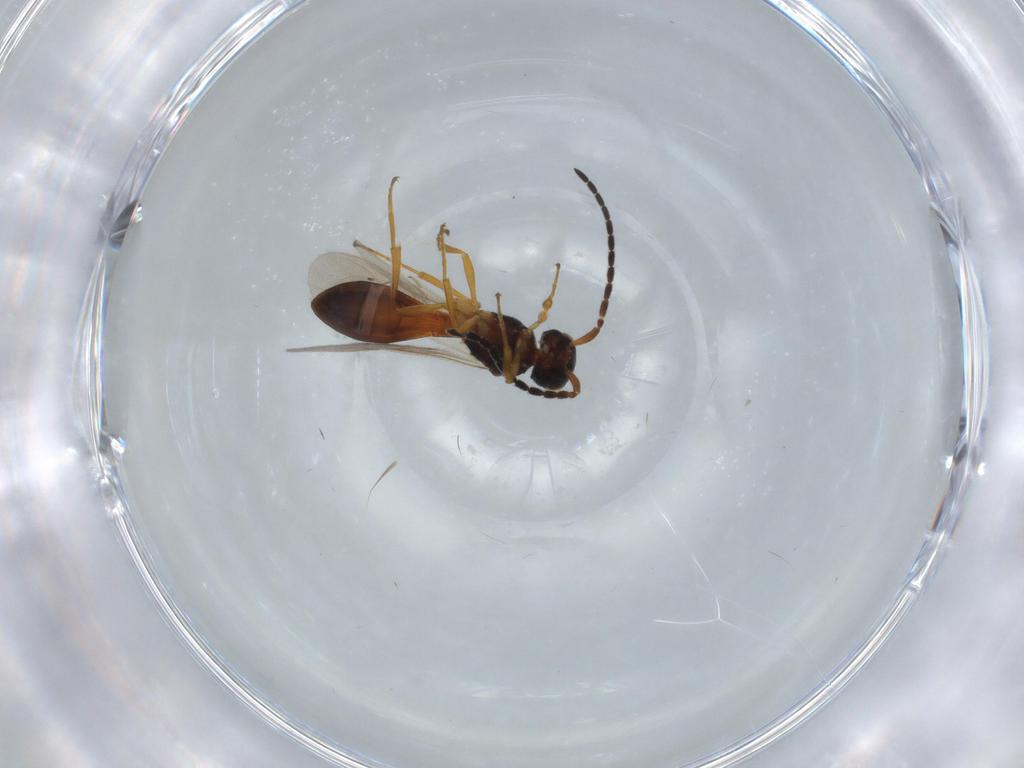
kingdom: Animalia
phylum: Arthropoda
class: Insecta
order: Hymenoptera
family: Scelionidae
